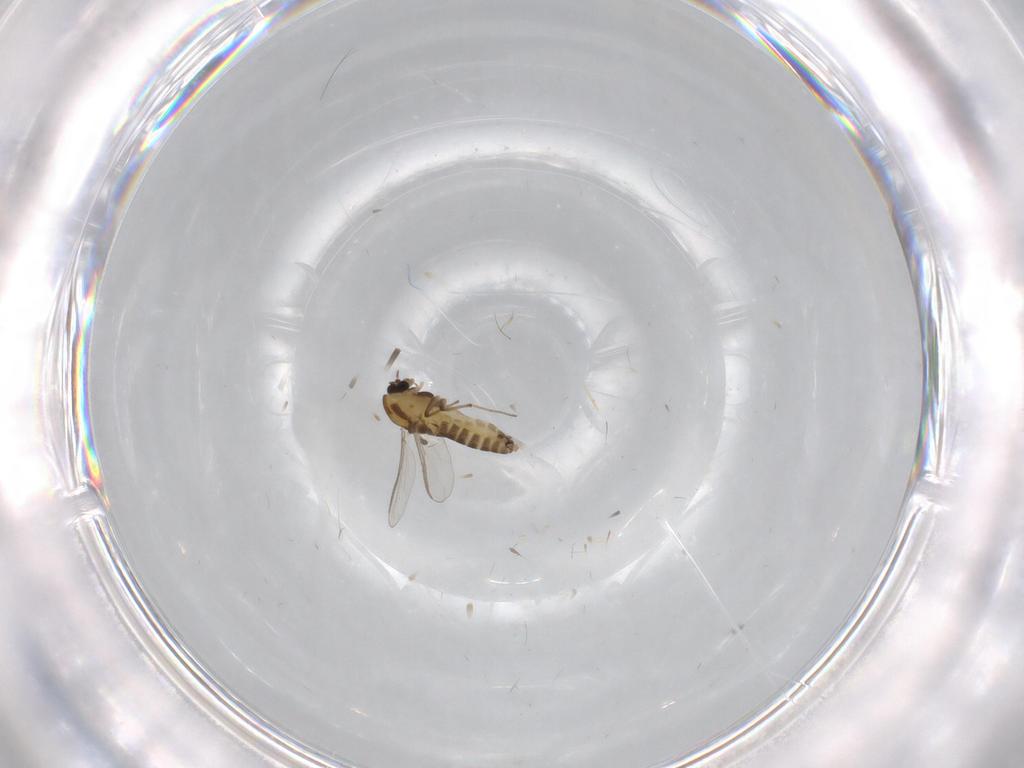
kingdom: Animalia
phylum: Arthropoda
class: Insecta
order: Diptera
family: Chironomidae
